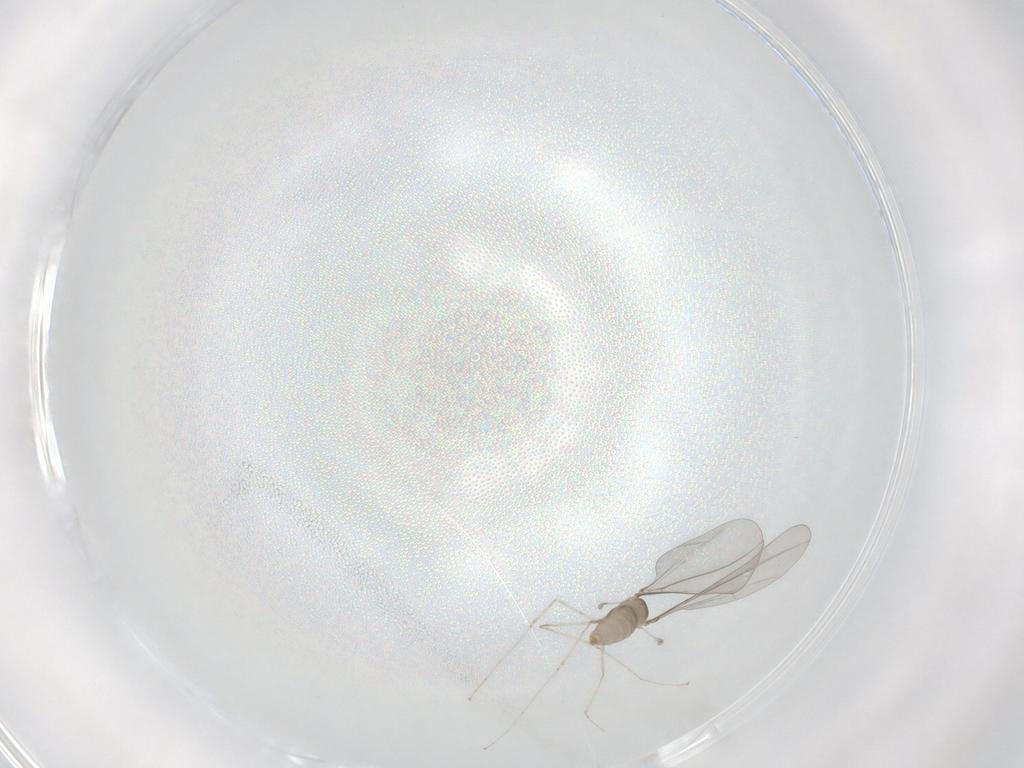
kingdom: Animalia
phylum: Arthropoda
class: Insecta
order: Diptera
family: Cecidomyiidae
